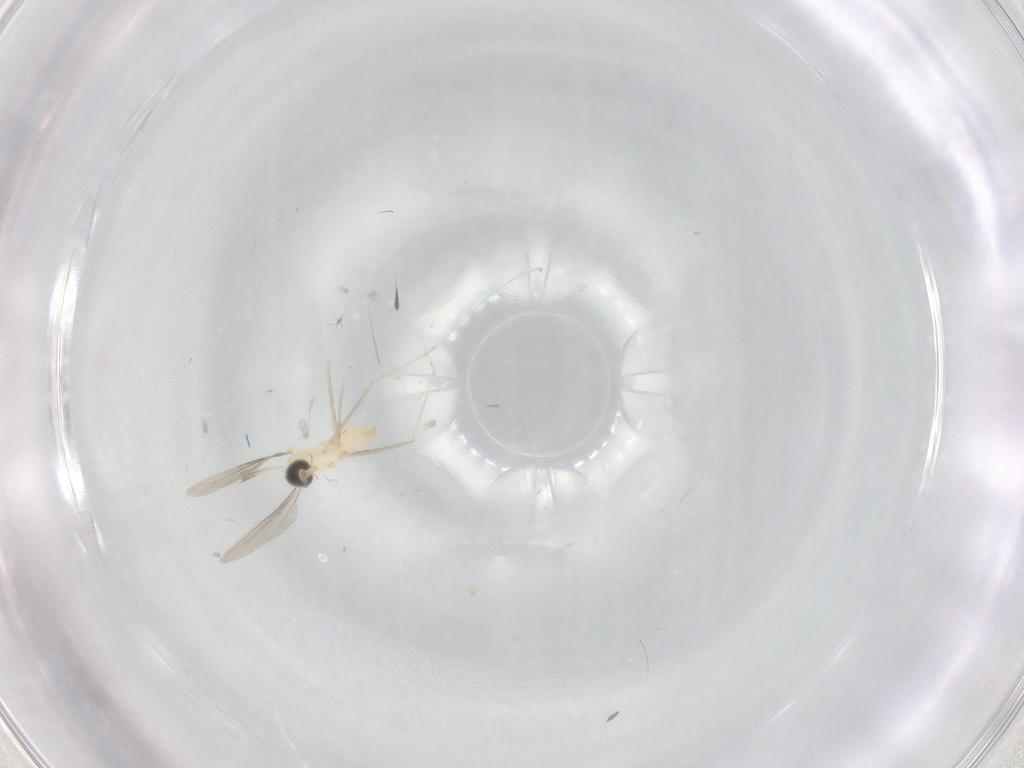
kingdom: Animalia
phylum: Arthropoda
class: Insecta
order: Diptera
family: Cecidomyiidae
